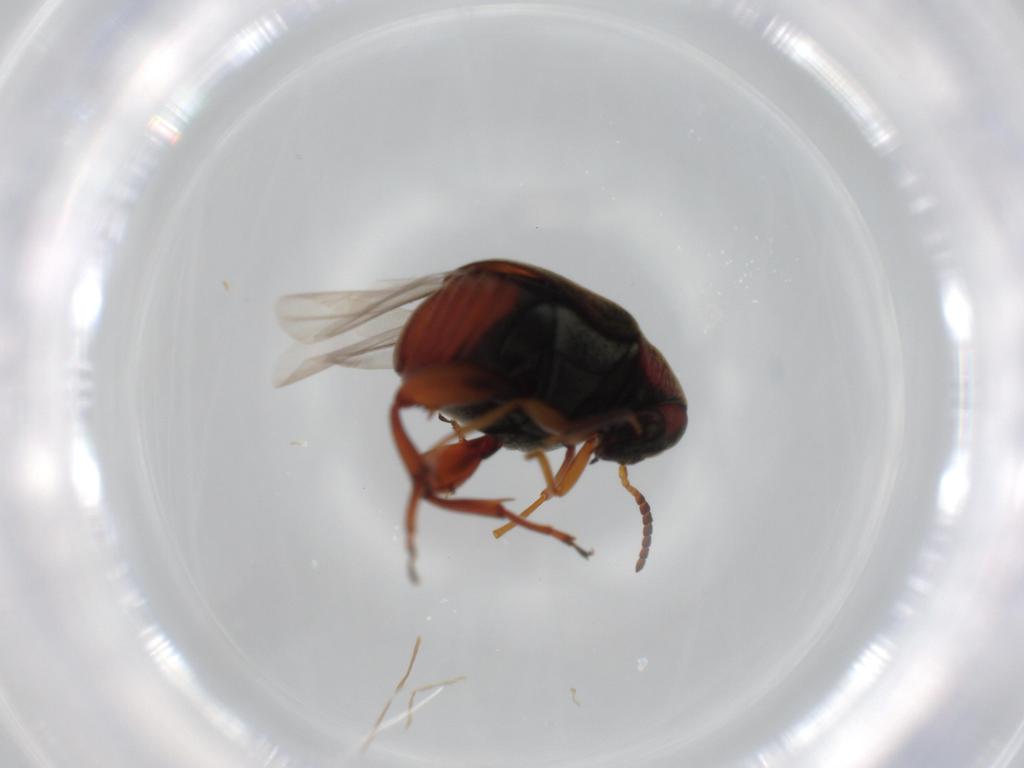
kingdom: Animalia
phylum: Arthropoda
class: Insecta
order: Coleoptera
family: Chrysomelidae
